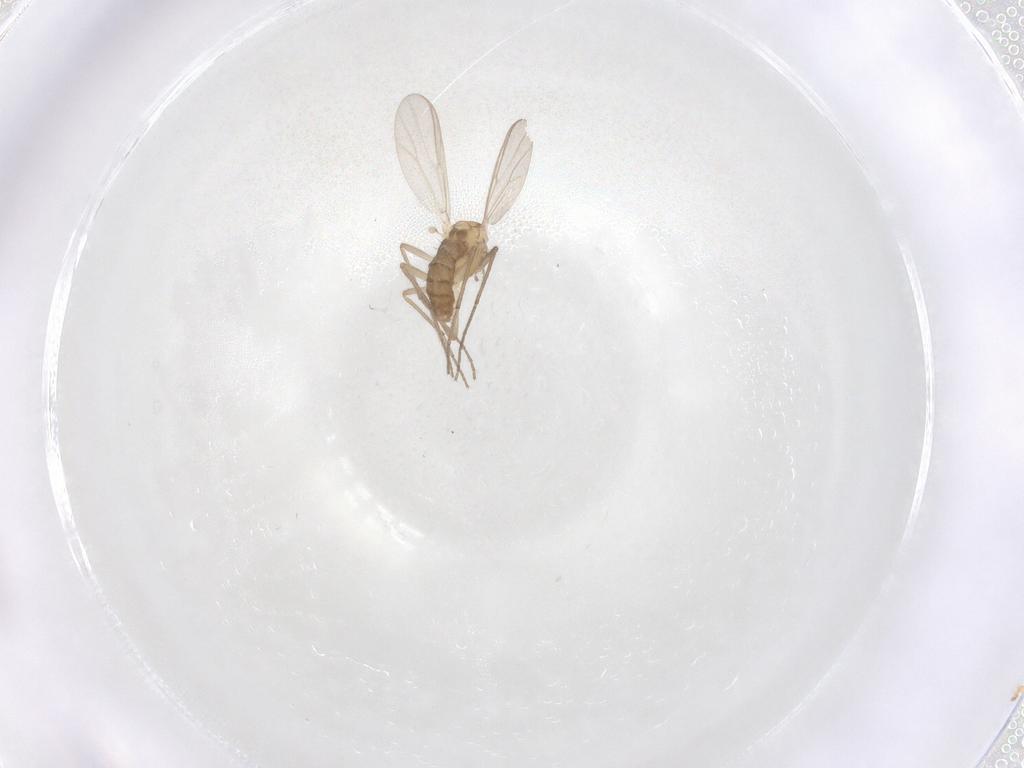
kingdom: Animalia
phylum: Arthropoda
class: Insecta
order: Diptera
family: Chironomidae
